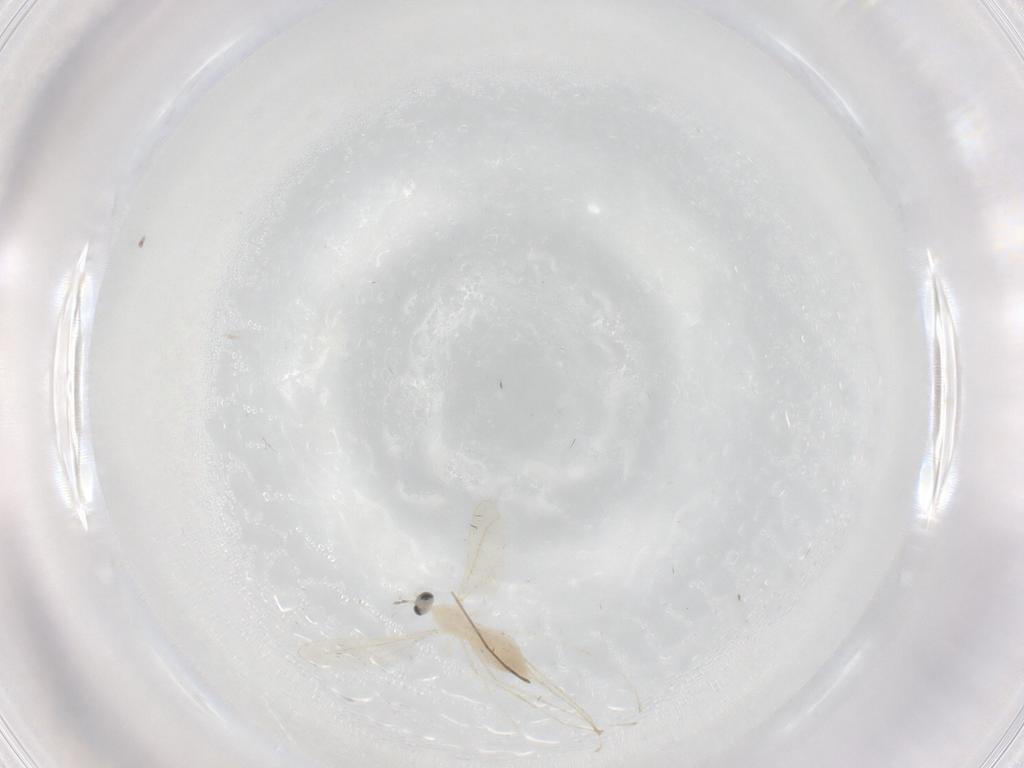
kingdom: Animalia
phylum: Arthropoda
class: Insecta
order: Diptera
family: Cecidomyiidae
